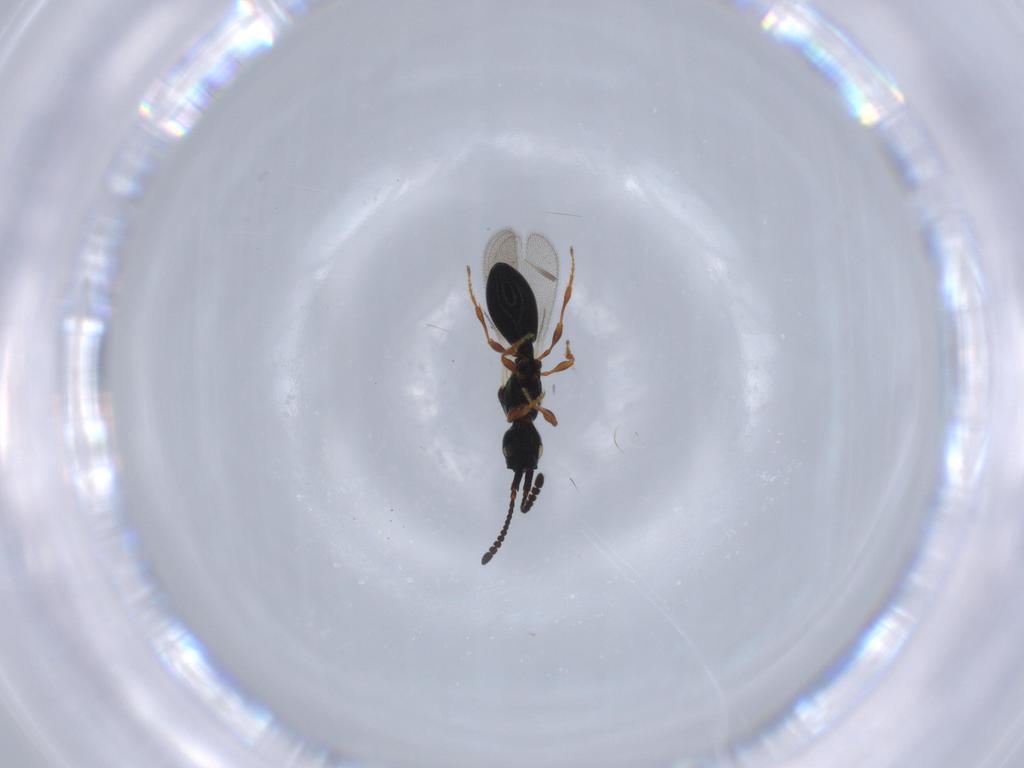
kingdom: Animalia
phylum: Arthropoda
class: Insecta
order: Hymenoptera
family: Diapriidae
